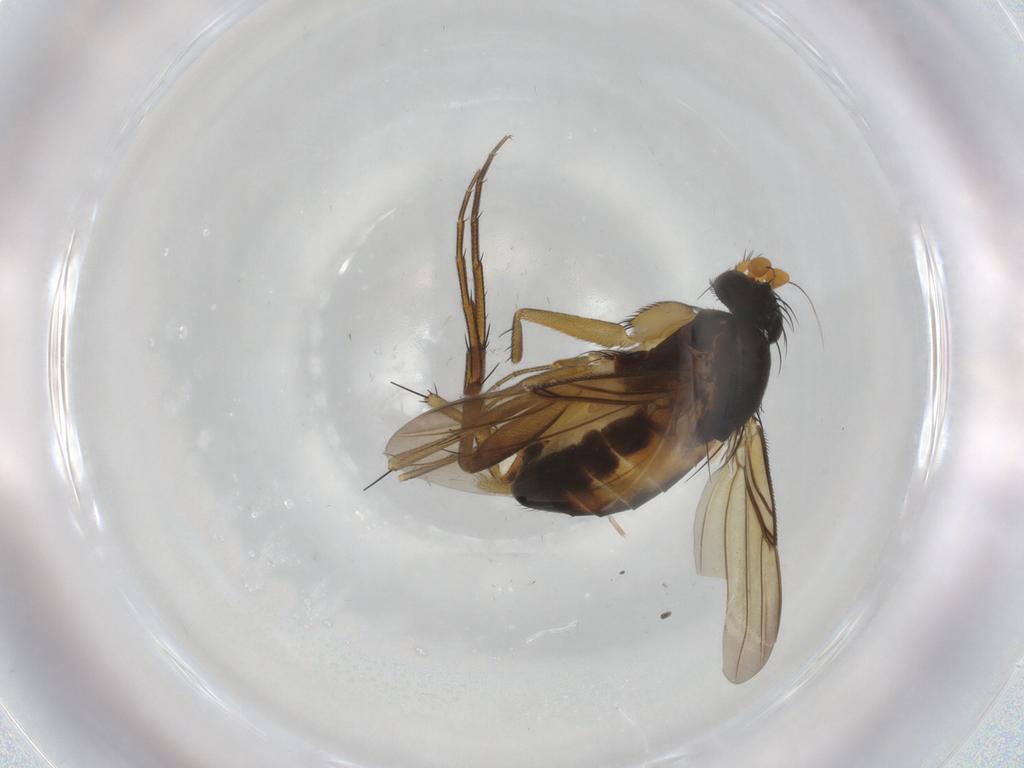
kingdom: Animalia
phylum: Arthropoda
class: Insecta
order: Diptera
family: Phoridae
